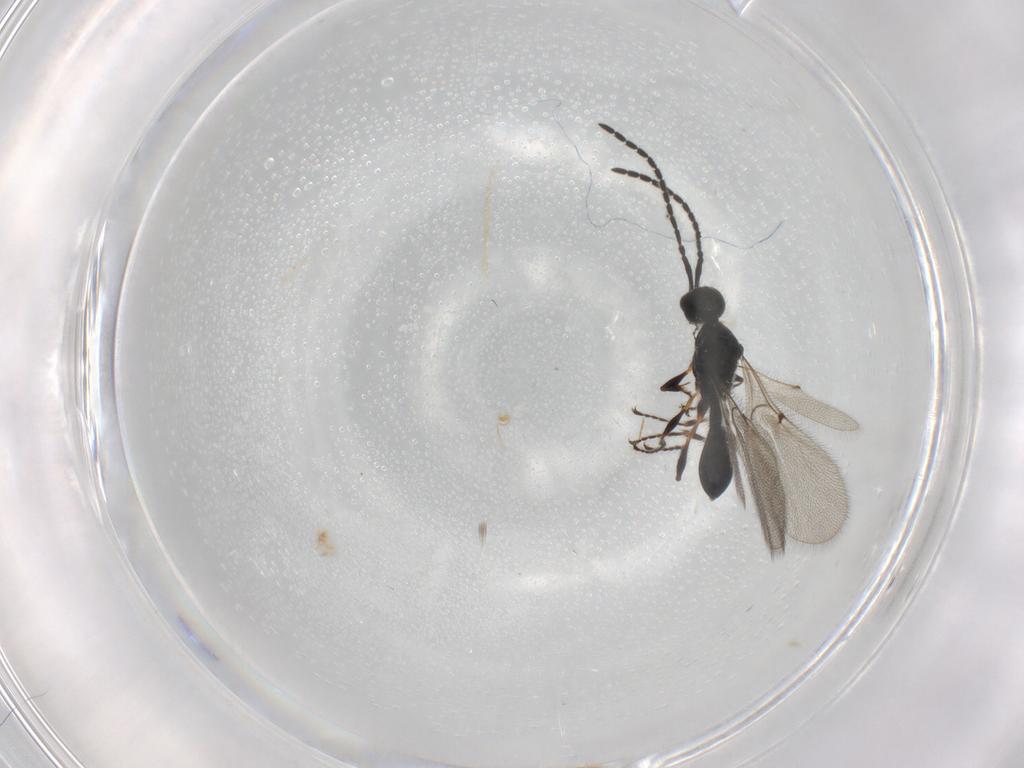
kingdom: Animalia
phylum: Arthropoda
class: Insecta
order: Hymenoptera
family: Diapriidae
